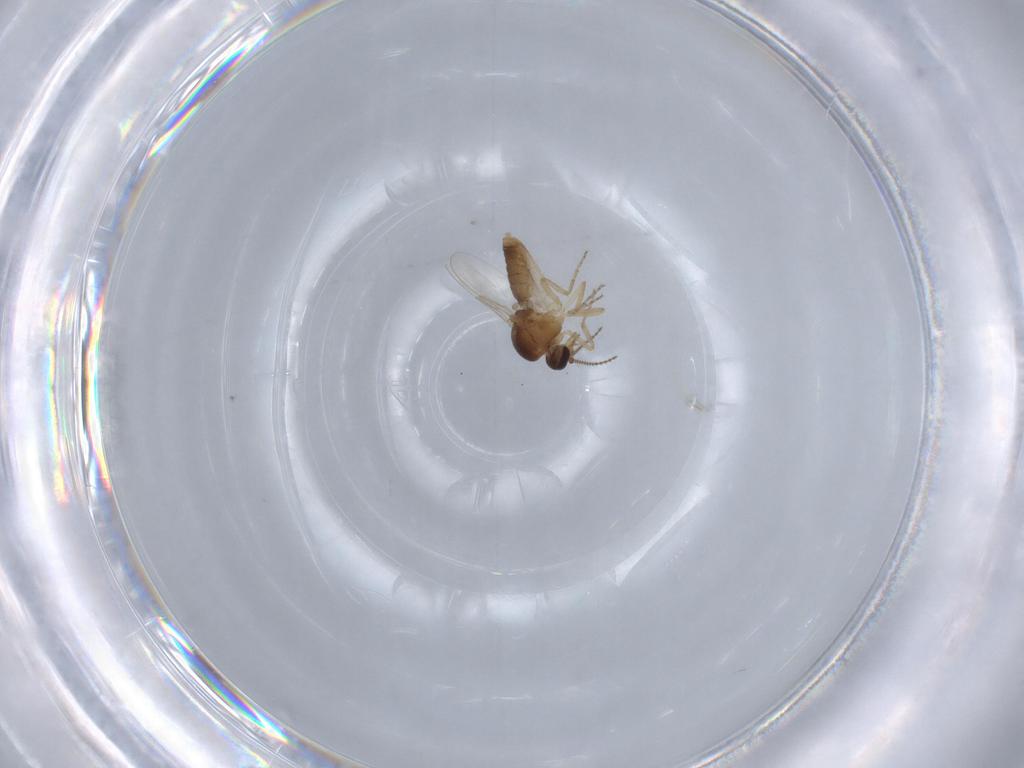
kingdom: Animalia
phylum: Arthropoda
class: Insecta
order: Diptera
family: Ceratopogonidae
